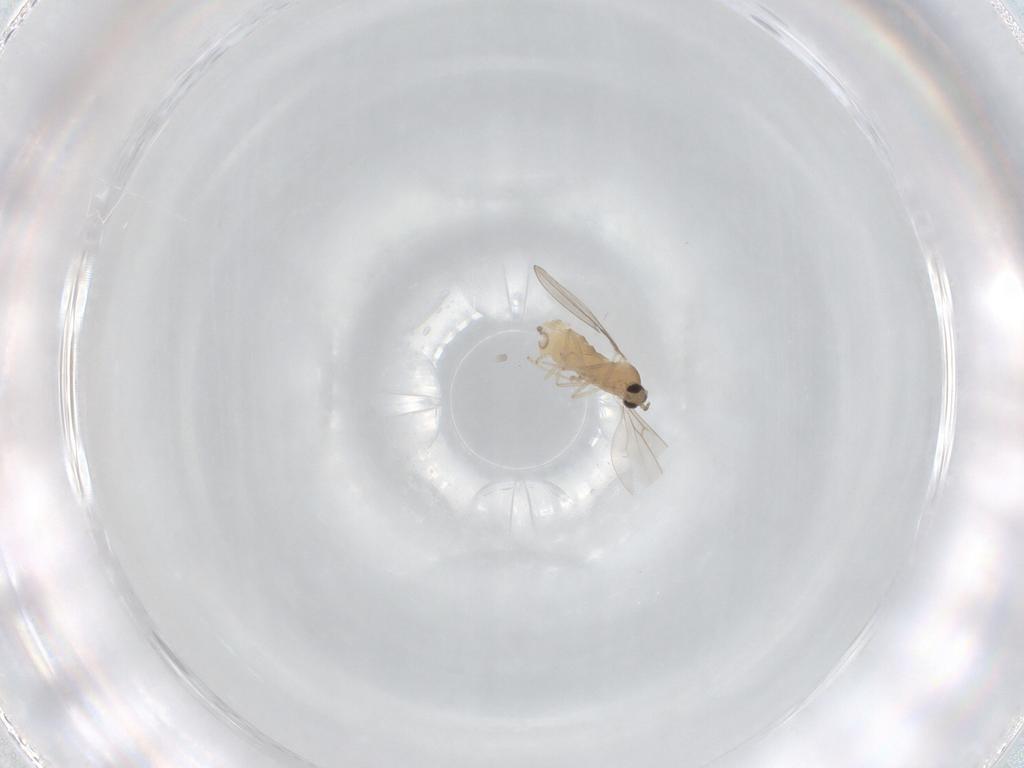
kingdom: Animalia
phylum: Arthropoda
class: Insecta
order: Diptera
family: Cecidomyiidae
